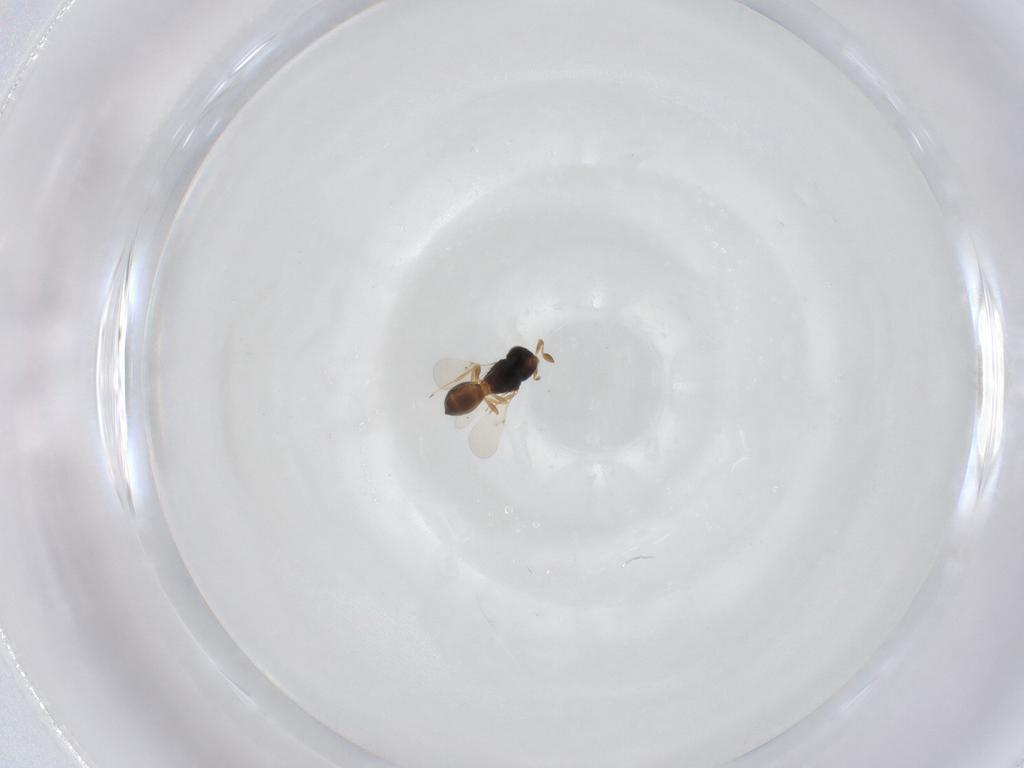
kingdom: Animalia
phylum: Arthropoda
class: Insecta
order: Hymenoptera
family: Scelionidae
